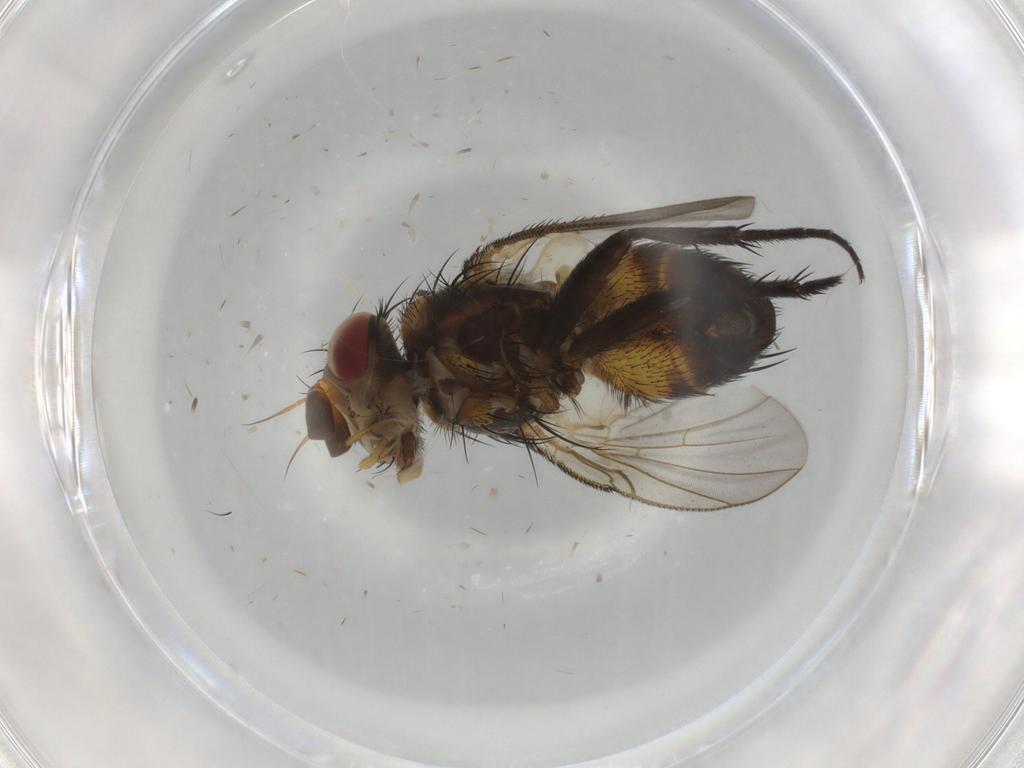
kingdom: Animalia
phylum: Arthropoda
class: Insecta
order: Diptera
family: Tachinidae
